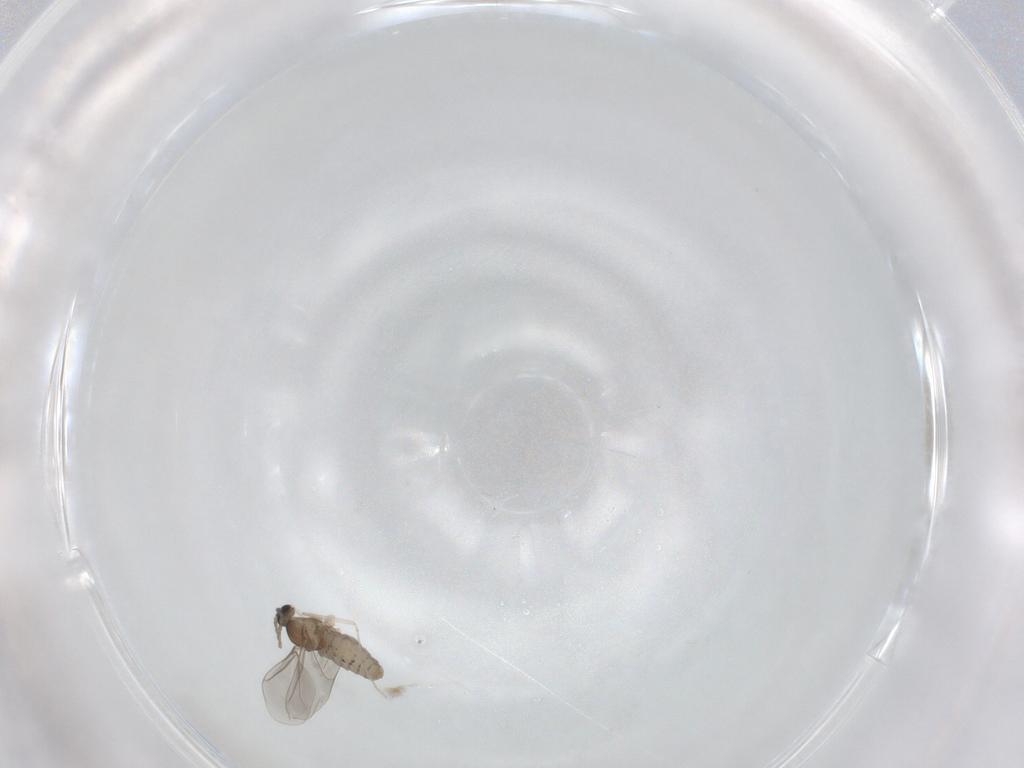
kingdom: Animalia
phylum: Arthropoda
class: Insecta
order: Diptera
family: Cecidomyiidae
